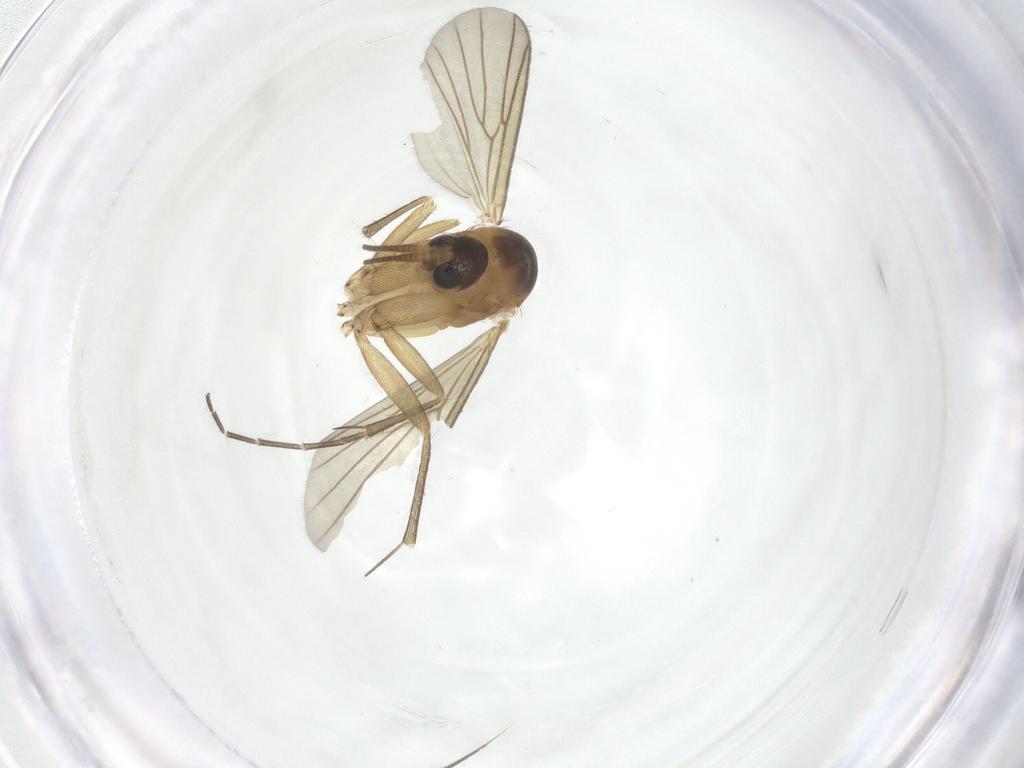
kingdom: Animalia
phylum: Arthropoda
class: Insecta
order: Diptera
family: Mycetophilidae
